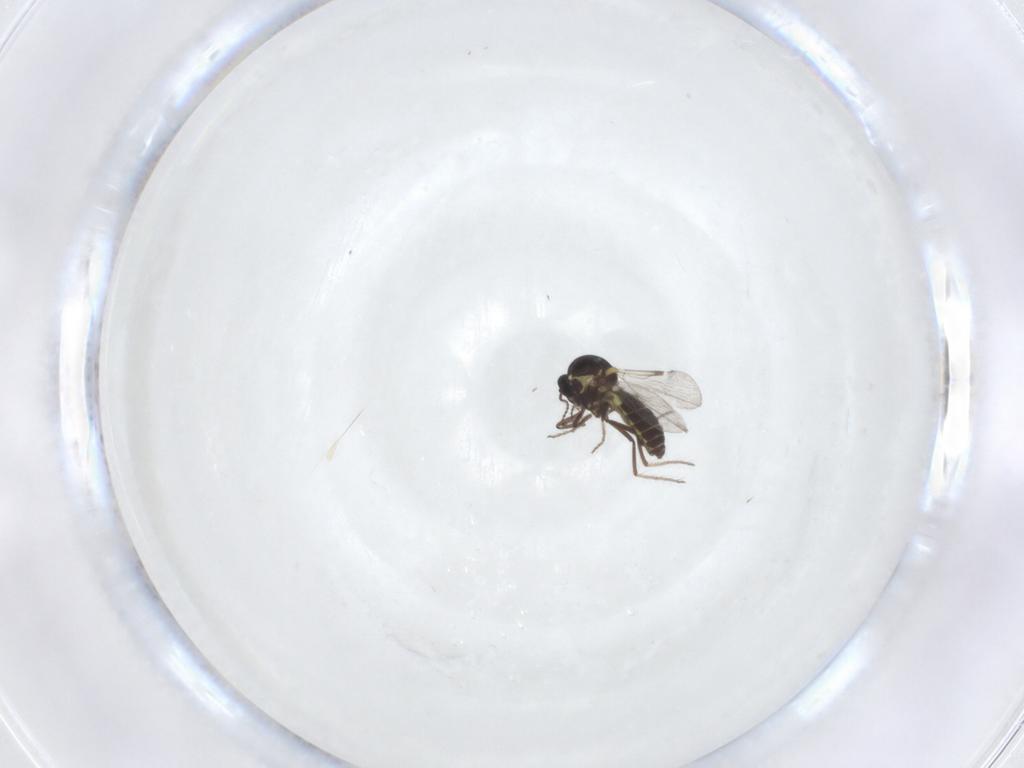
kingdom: Animalia
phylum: Arthropoda
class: Insecta
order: Diptera
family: Ceratopogonidae
